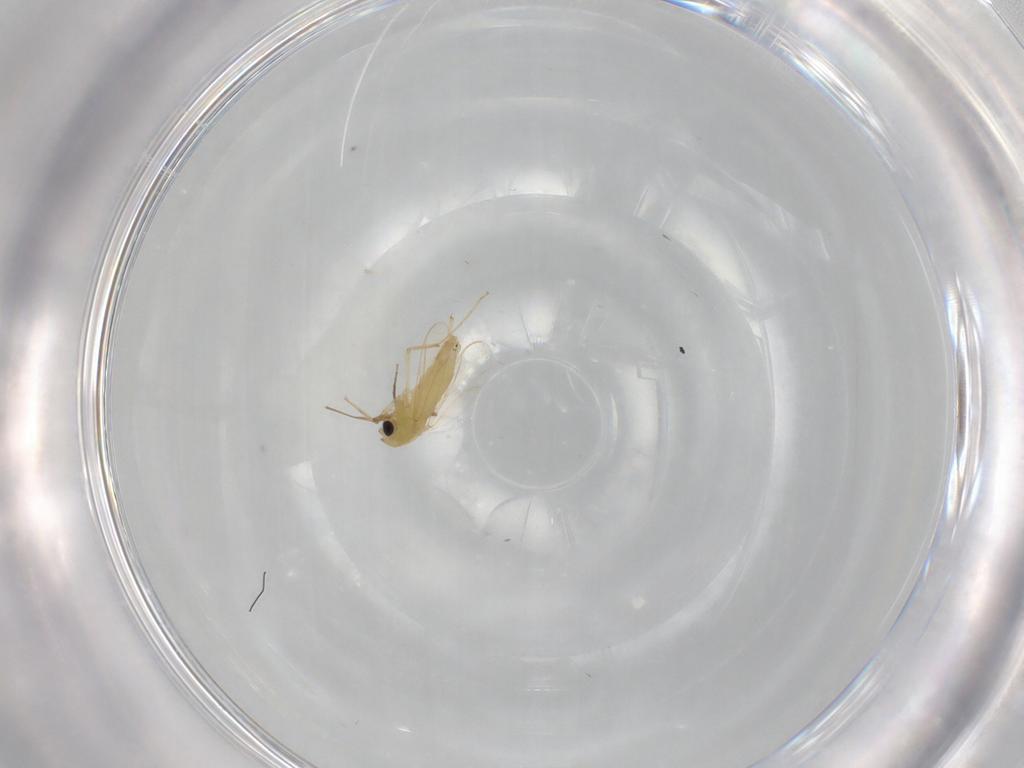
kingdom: Animalia
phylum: Arthropoda
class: Insecta
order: Diptera
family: Chironomidae
